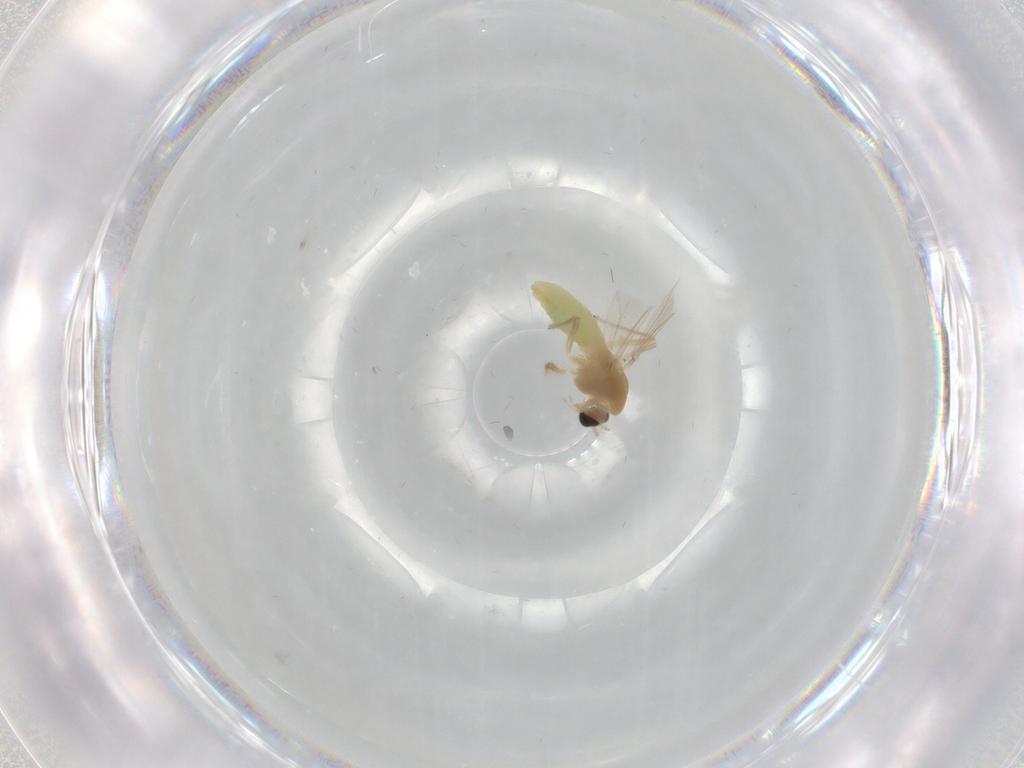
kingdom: Animalia
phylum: Arthropoda
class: Insecta
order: Diptera
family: Chironomidae
